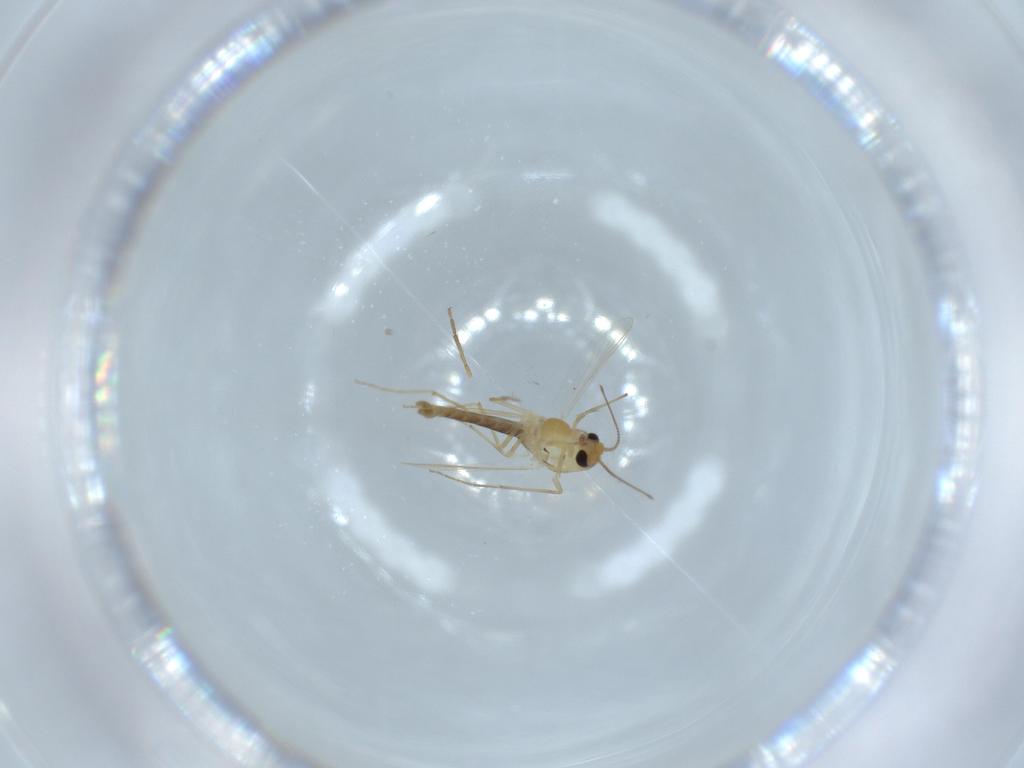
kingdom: Animalia
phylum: Arthropoda
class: Insecta
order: Diptera
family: Chironomidae
